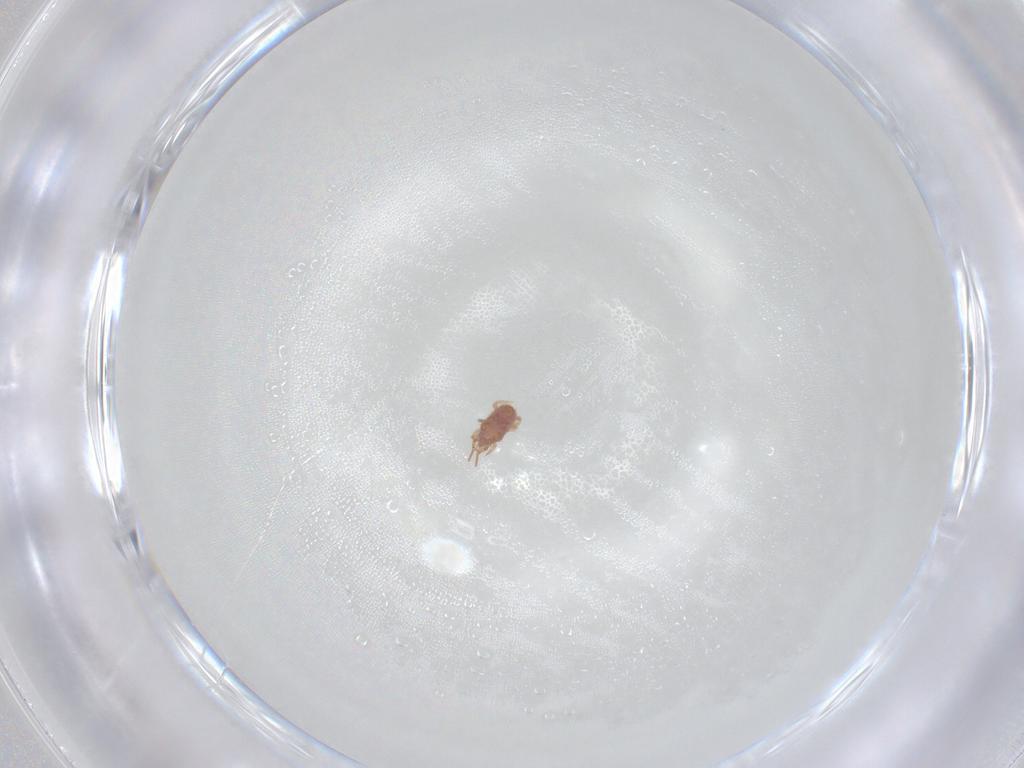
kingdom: Animalia
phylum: Arthropoda
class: Arachnida
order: Mesostigmata
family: Blattisociidae
